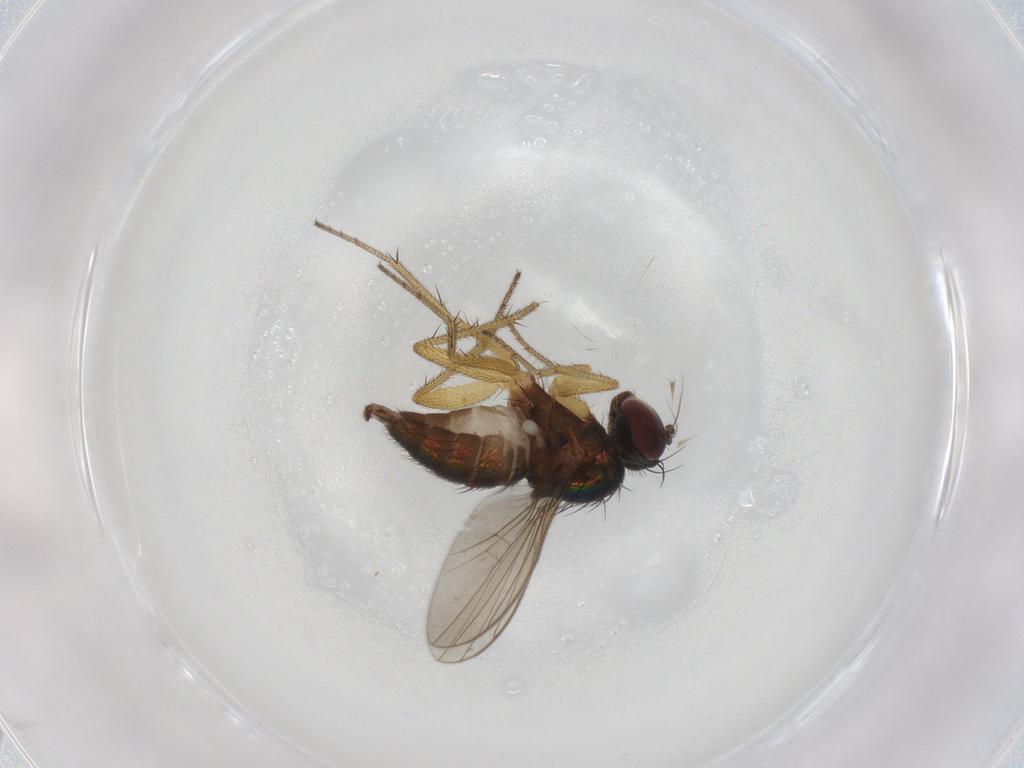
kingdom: Animalia
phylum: Arthropoda
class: Insecta
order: Diptera
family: Dolichopodidae
